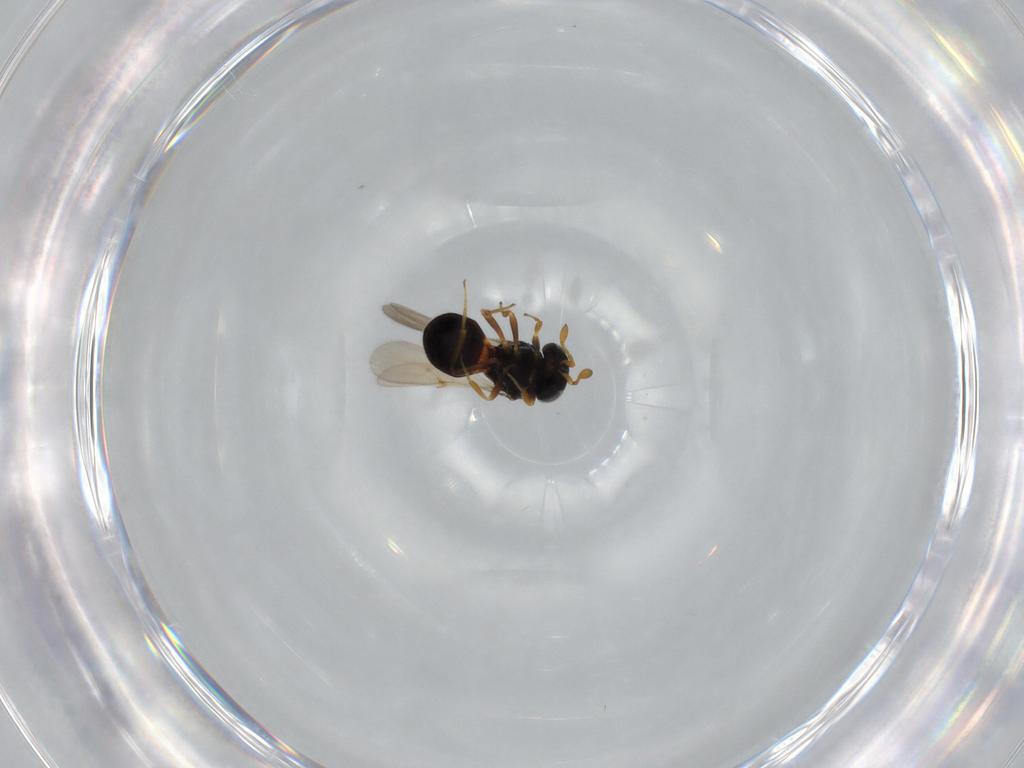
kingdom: Animalia
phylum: Arthropoda
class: Insecta
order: Hymenoptera
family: Scelionidae
